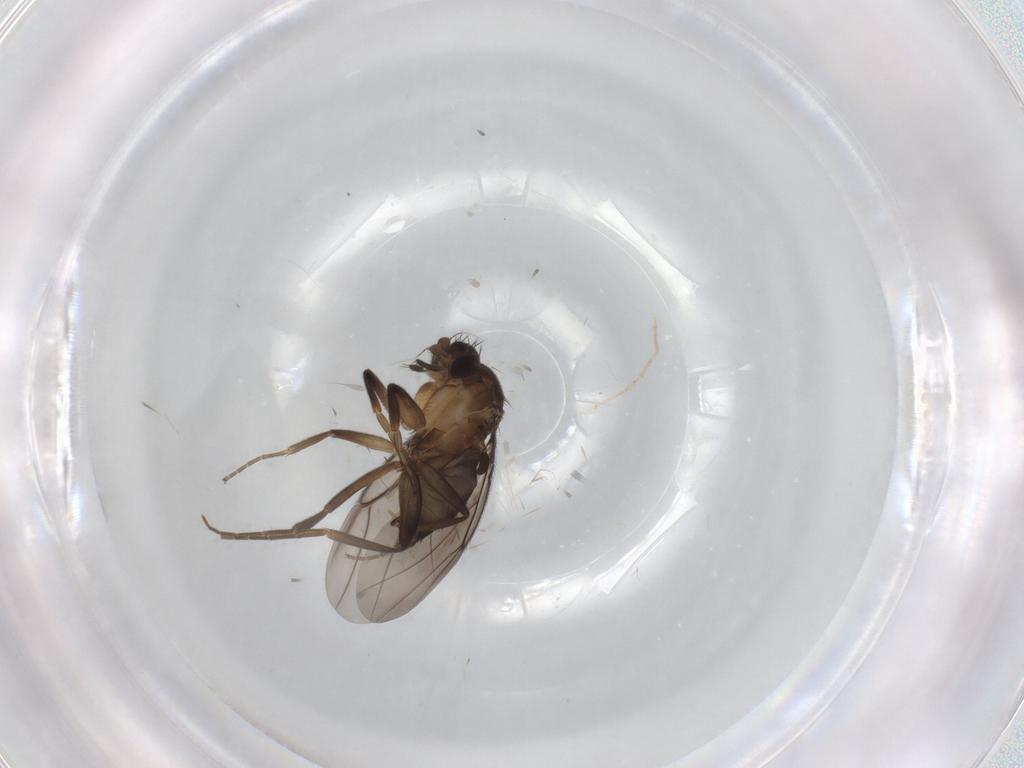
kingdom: Animalia
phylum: Arthropoda
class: Insecta
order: Diptera
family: Phoridae
